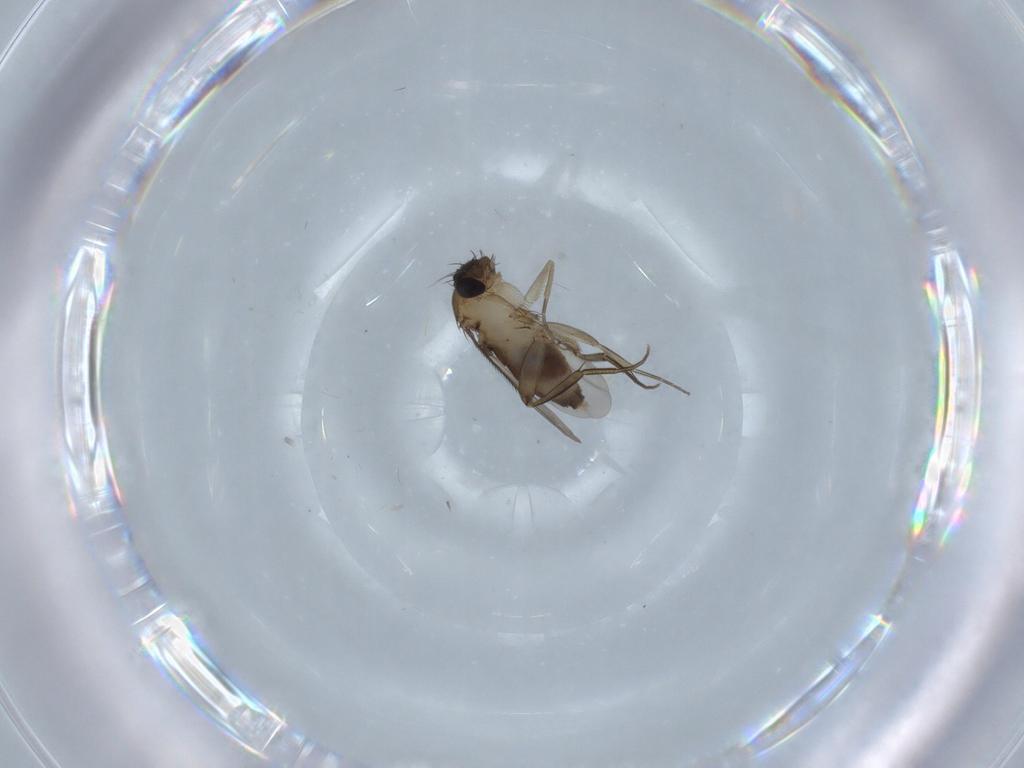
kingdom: Animalia
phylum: Arthropoda
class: Insecta
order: Diptera
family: Phoridae
